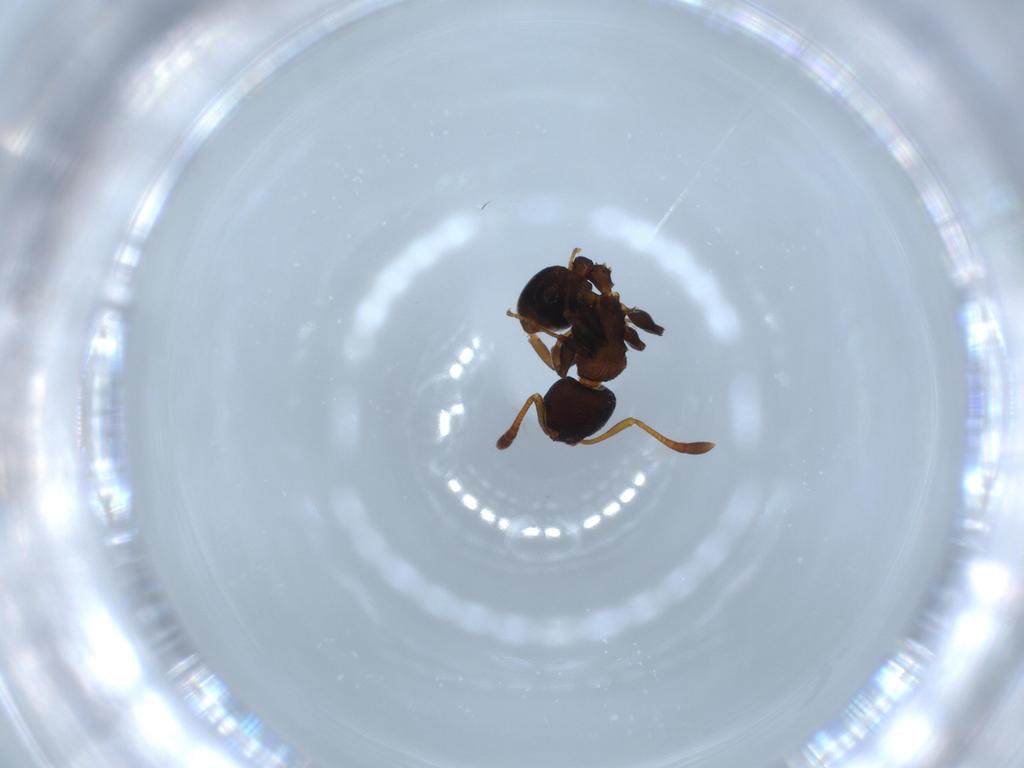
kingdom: Animalia
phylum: Arthropoda
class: Insecta
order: Hymenoptera
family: Formicidae
